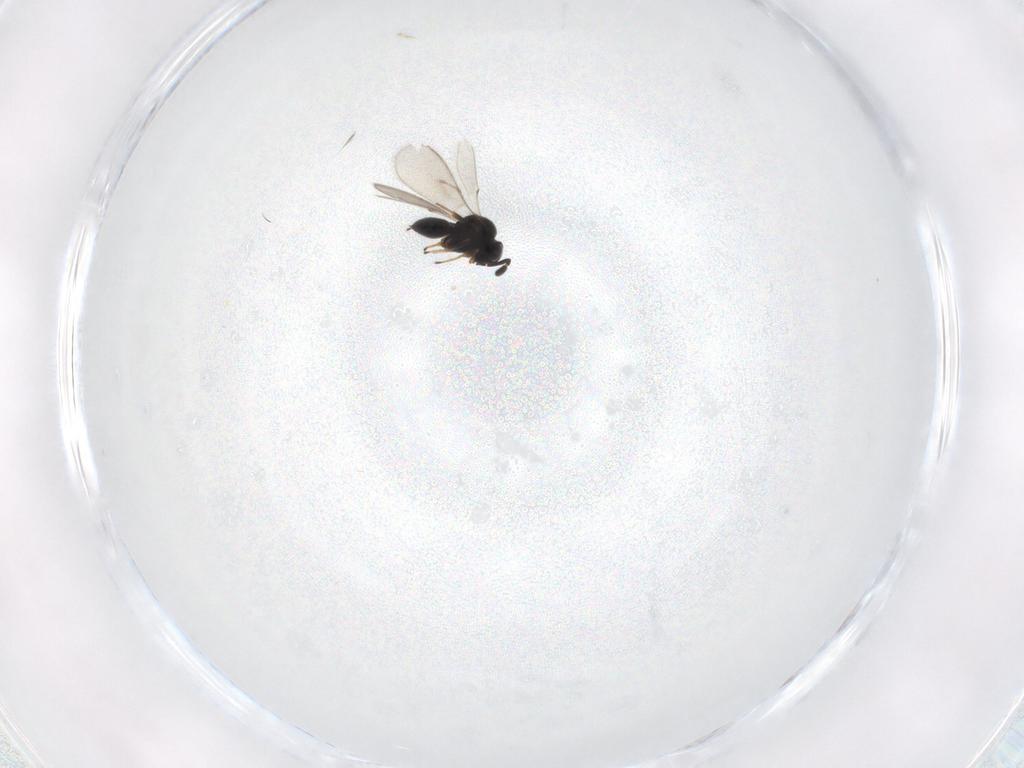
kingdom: Animalia
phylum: Arthropoda
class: Insecta
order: Hymenoptera
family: Scelionidae
